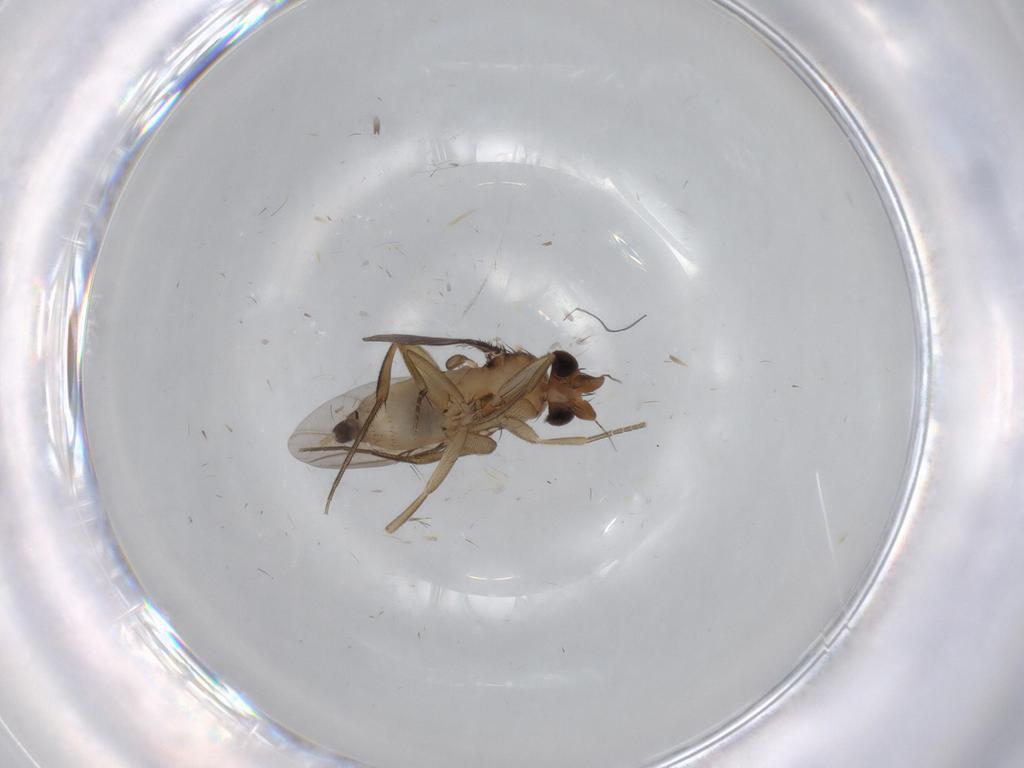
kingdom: Animalia
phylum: Arthropoda
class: Insecta
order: Diptera
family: Phoridae
